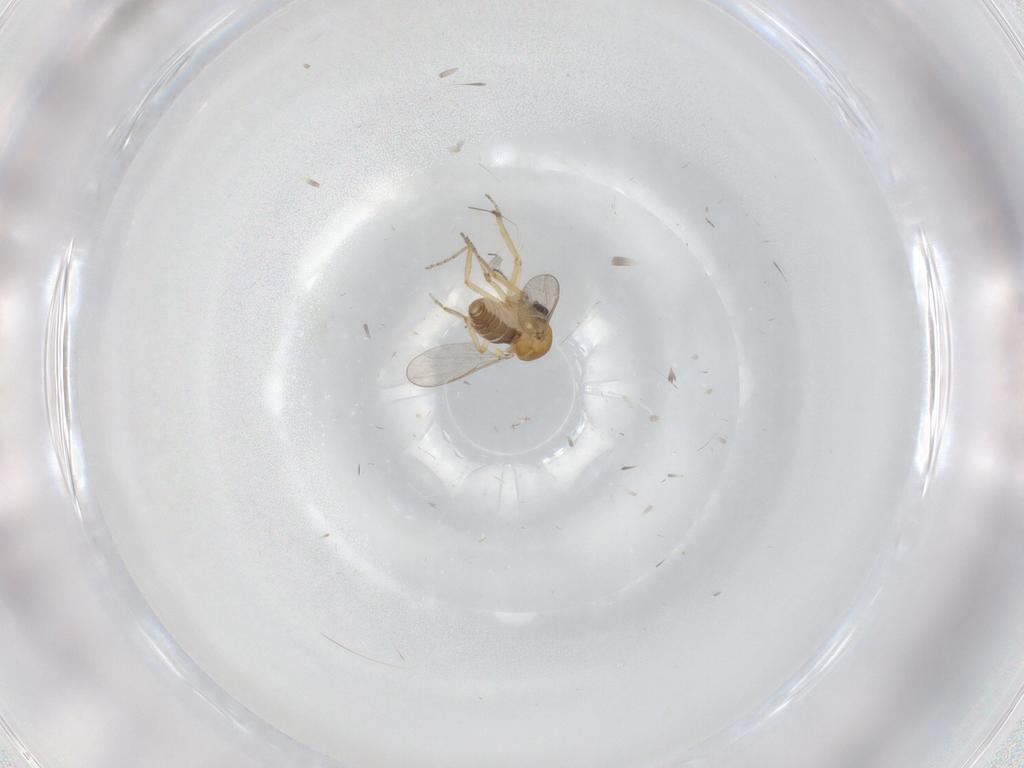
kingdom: Animalia
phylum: Arthropoda
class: Insecta
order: Diptera
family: Ceratopogonidae
